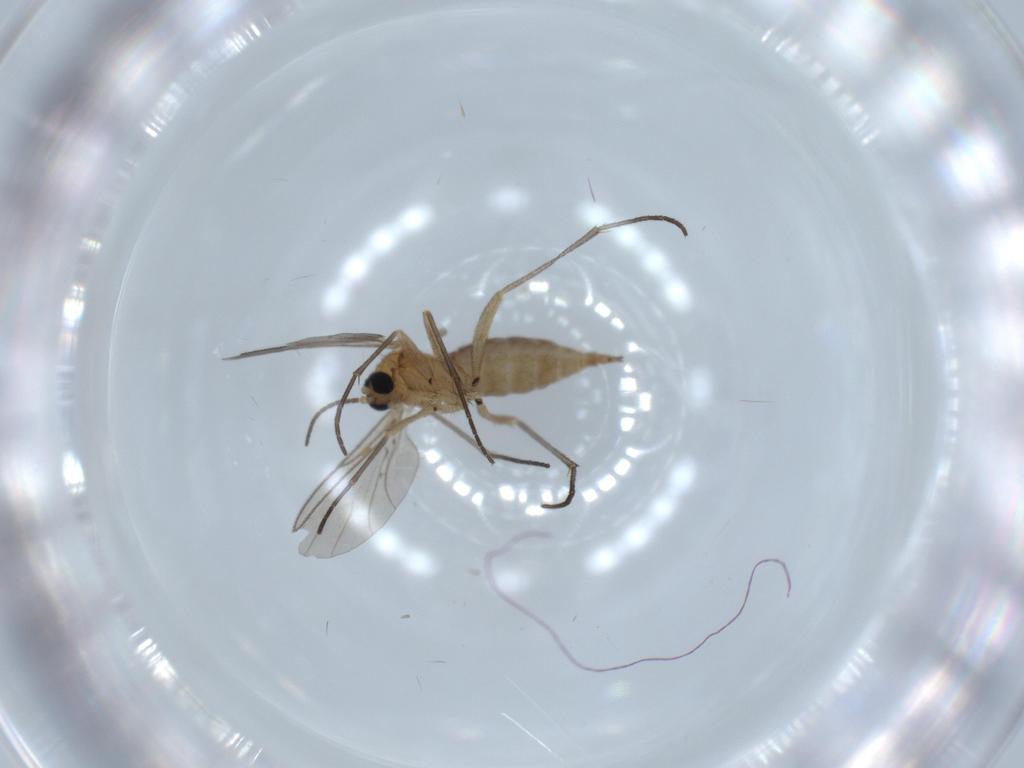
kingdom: Animalia
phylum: Arthropoda
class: Insecta
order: Diptera
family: Sciaridae
